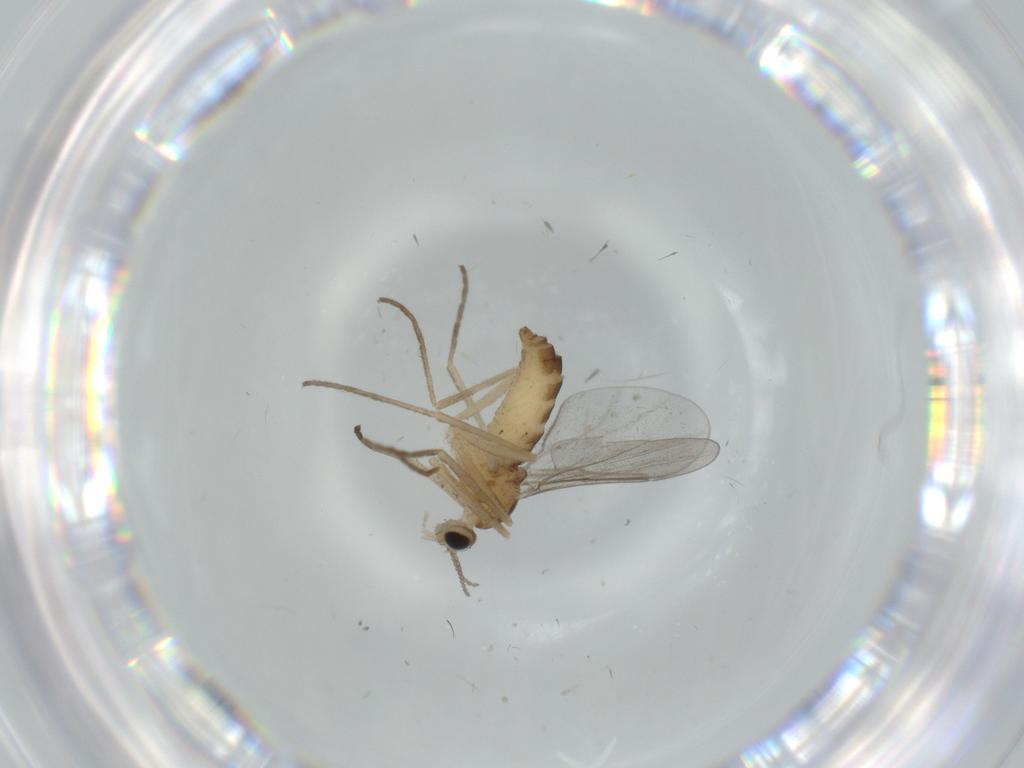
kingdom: Animalia
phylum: Arthropoda
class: Insecta
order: Diptera
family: Cecidomyiidae
